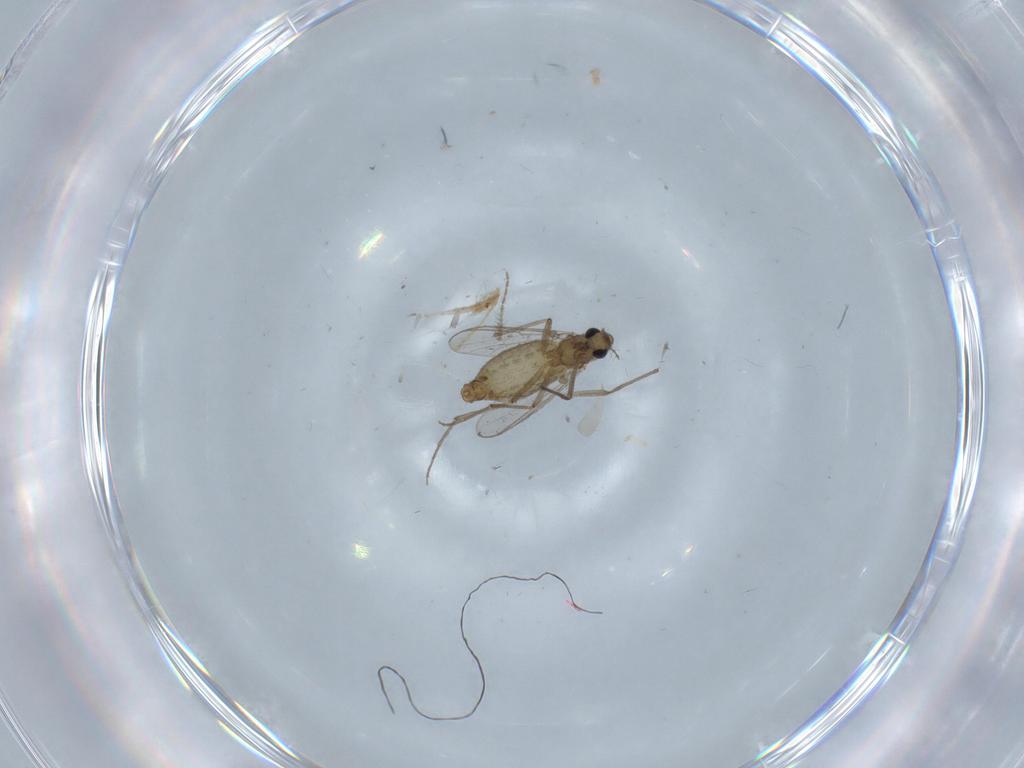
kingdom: Animalia
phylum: Arthropoda
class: Insecta
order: Diptera
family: Chironomidae
